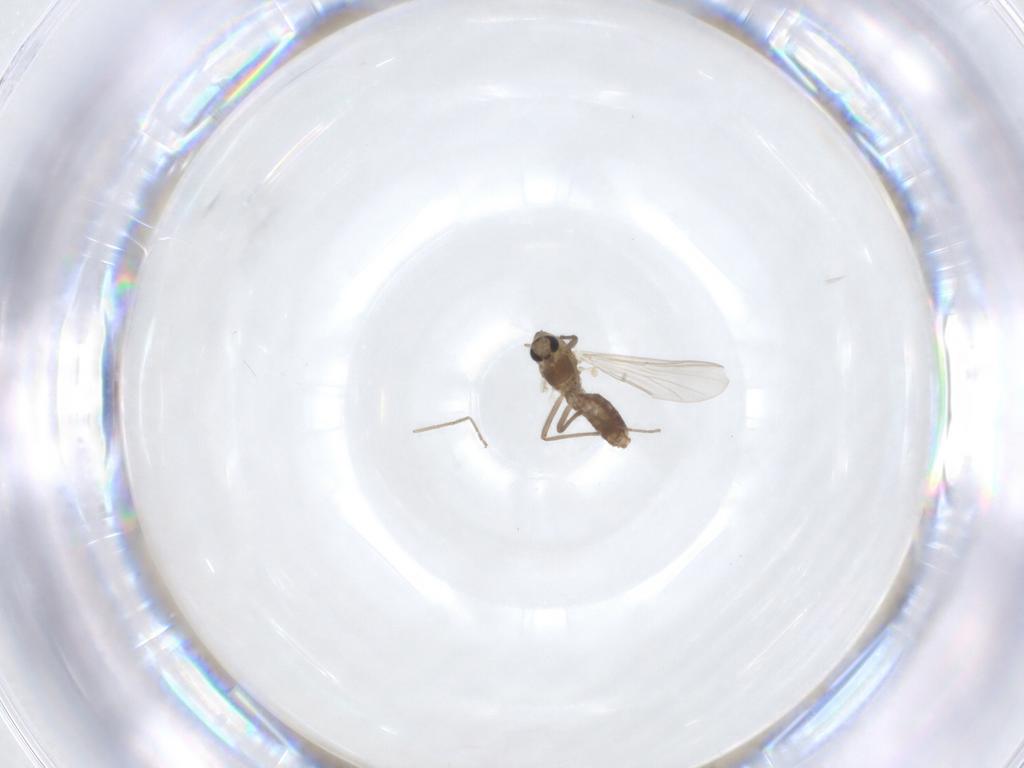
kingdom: Animalia
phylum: Arthropoda
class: Insecta
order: Diptera
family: Chironomidae
